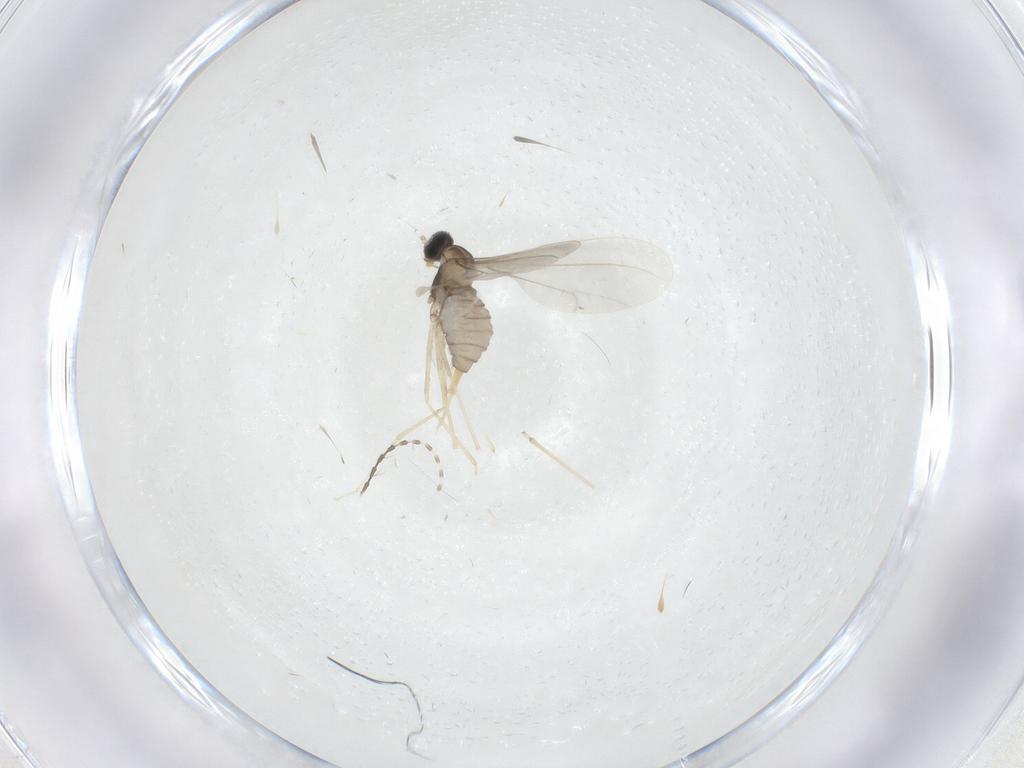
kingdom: Animalia
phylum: Arthropoda
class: Insecta
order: Diptera
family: Cecidomyiidae
